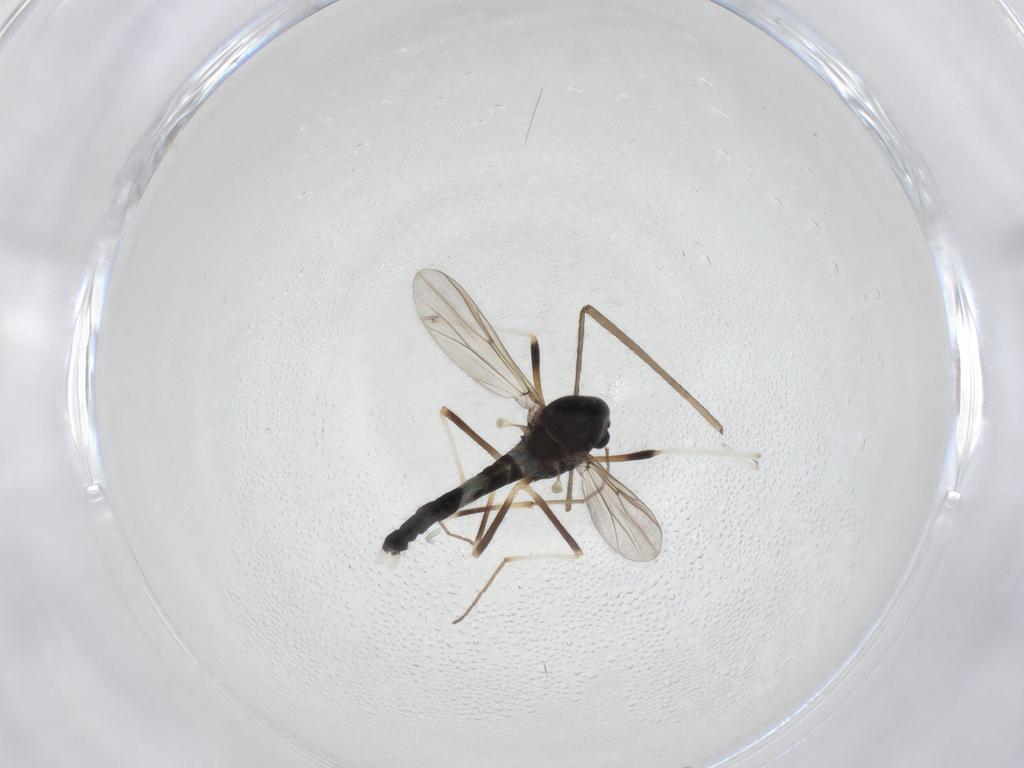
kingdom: Animalia
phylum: Arthropoda
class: Insecta
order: Diptera
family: Chironomidae
